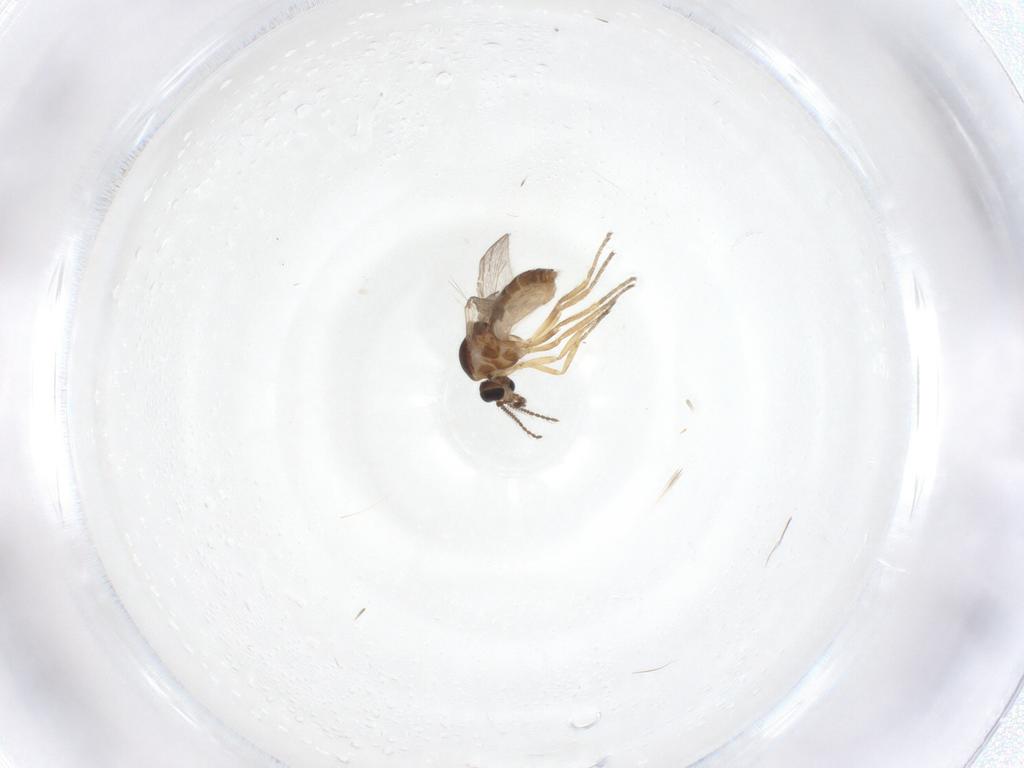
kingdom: Animalia
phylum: Arthropoda
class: Insecta
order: Diptera
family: Ceratopogonidae
